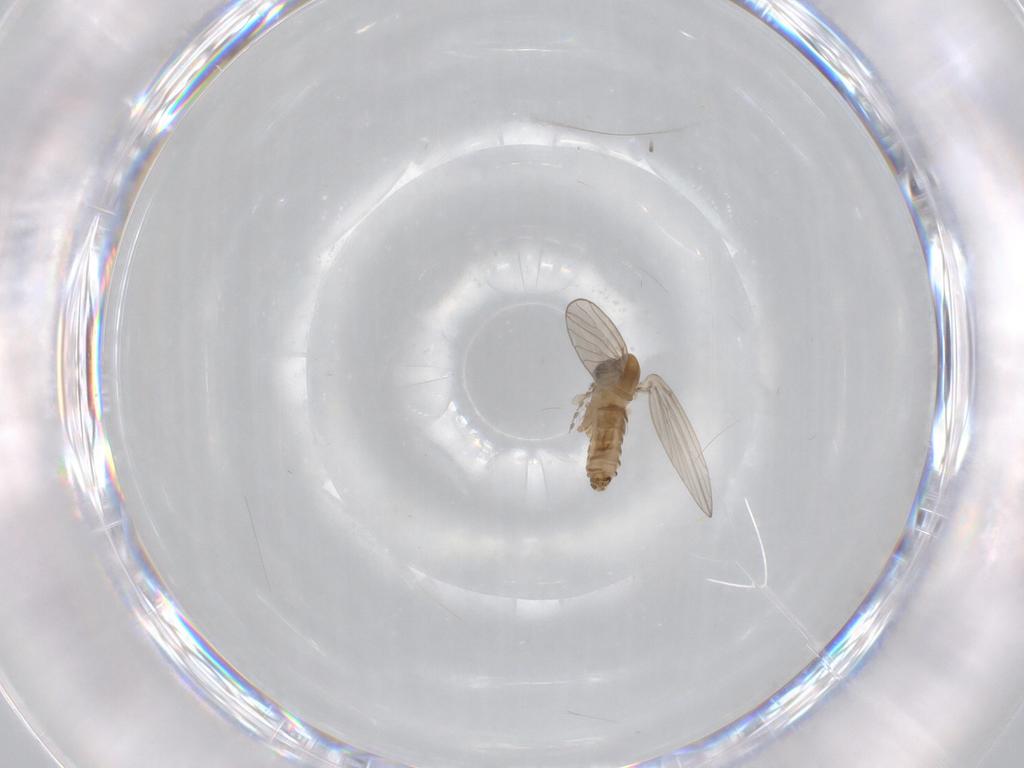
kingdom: Animalia
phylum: Arthropoda
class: Insecta
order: Diptera
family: Psychodidae
